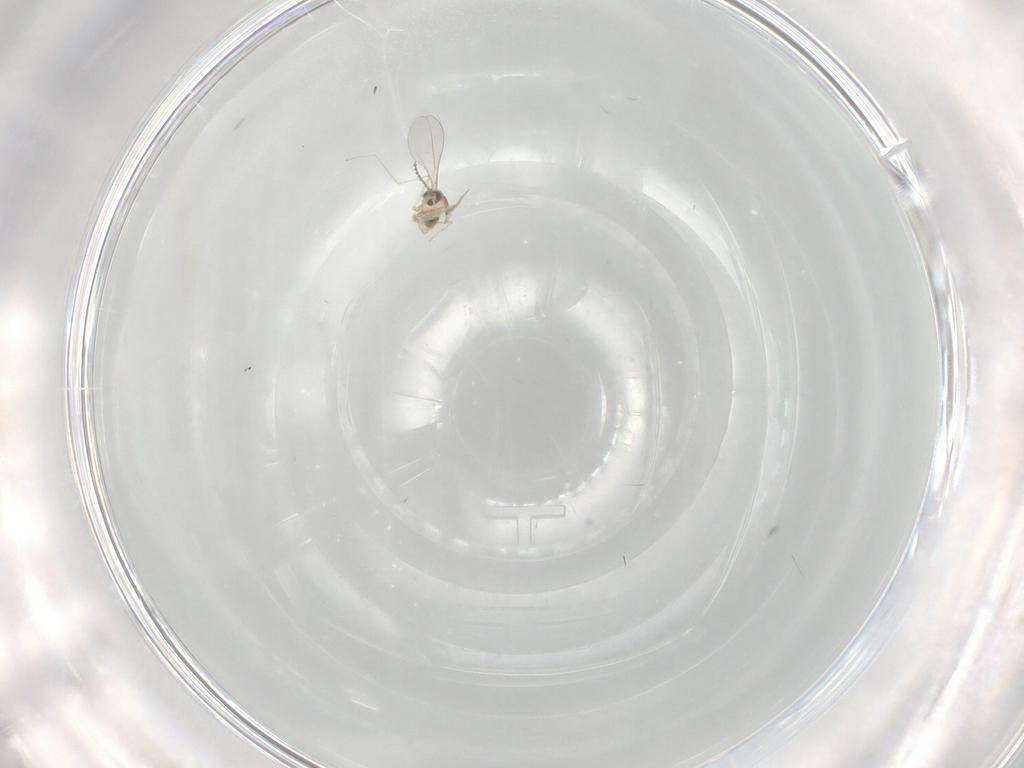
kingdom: Animalia
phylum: Arthropoda
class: Insecta
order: Diptera
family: Cecidomyiidae
